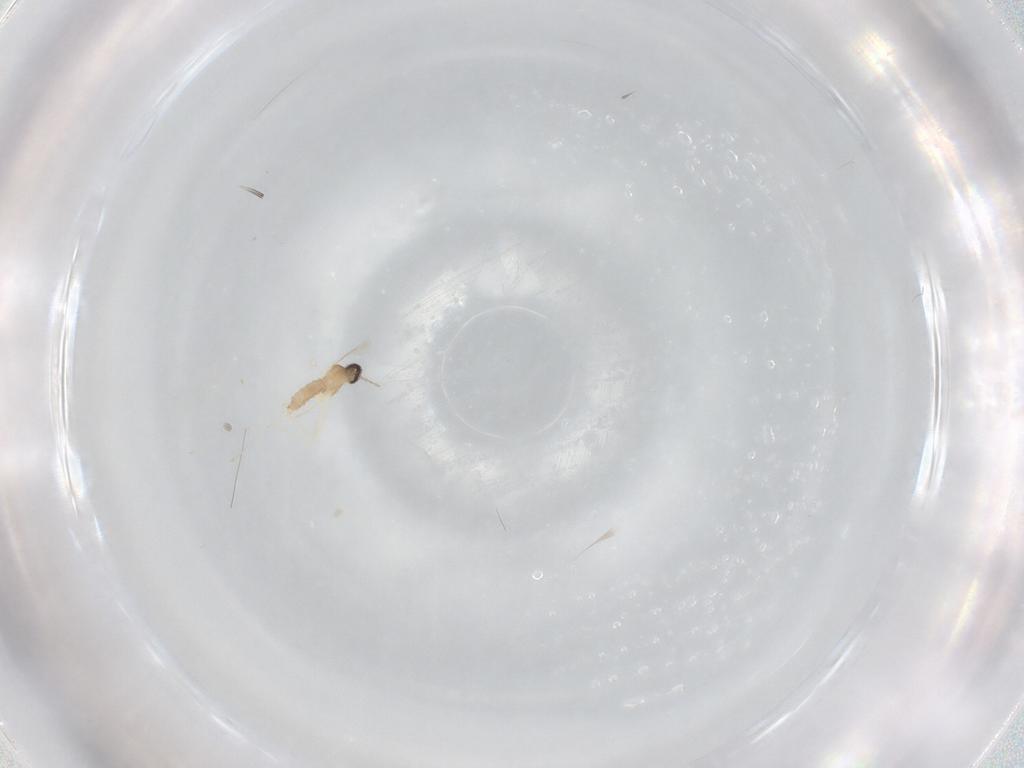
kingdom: Animalia
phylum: Arthropoda
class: Insecta
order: Diptera
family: Cecidomyiidae
